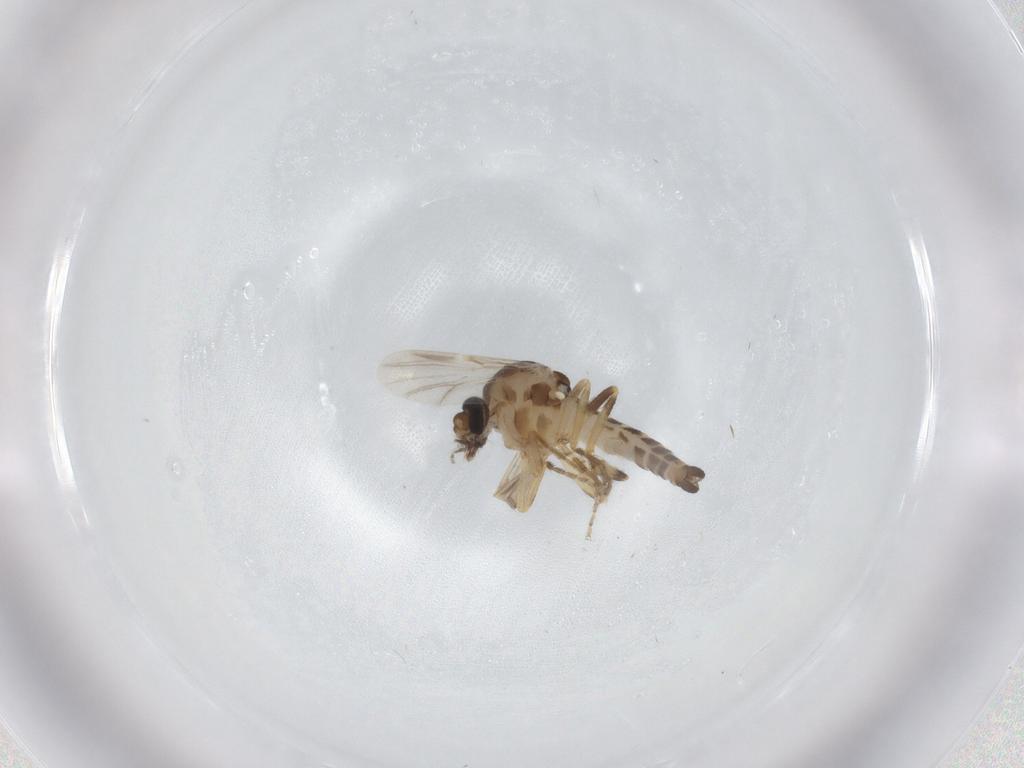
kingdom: Animalia
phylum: Arthropoda
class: Insecta
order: Diptera
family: Ceratopogonidae
